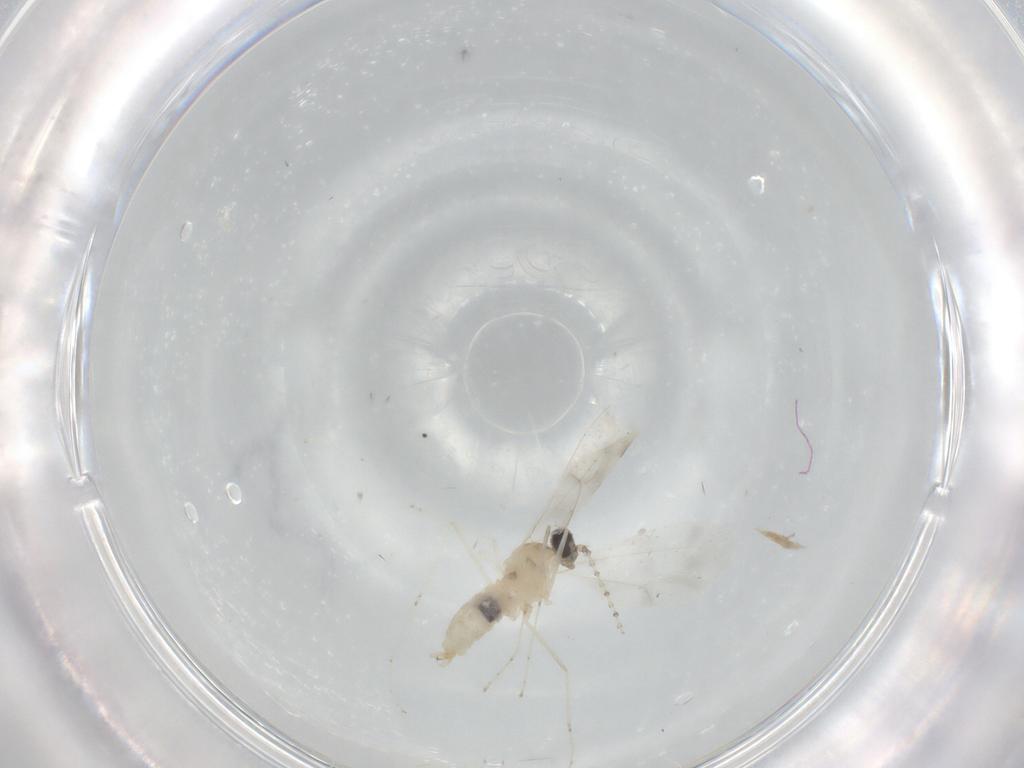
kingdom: Animalia
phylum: Arthropoda
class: Insecta
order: Diptera
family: Cecidomyiidae
